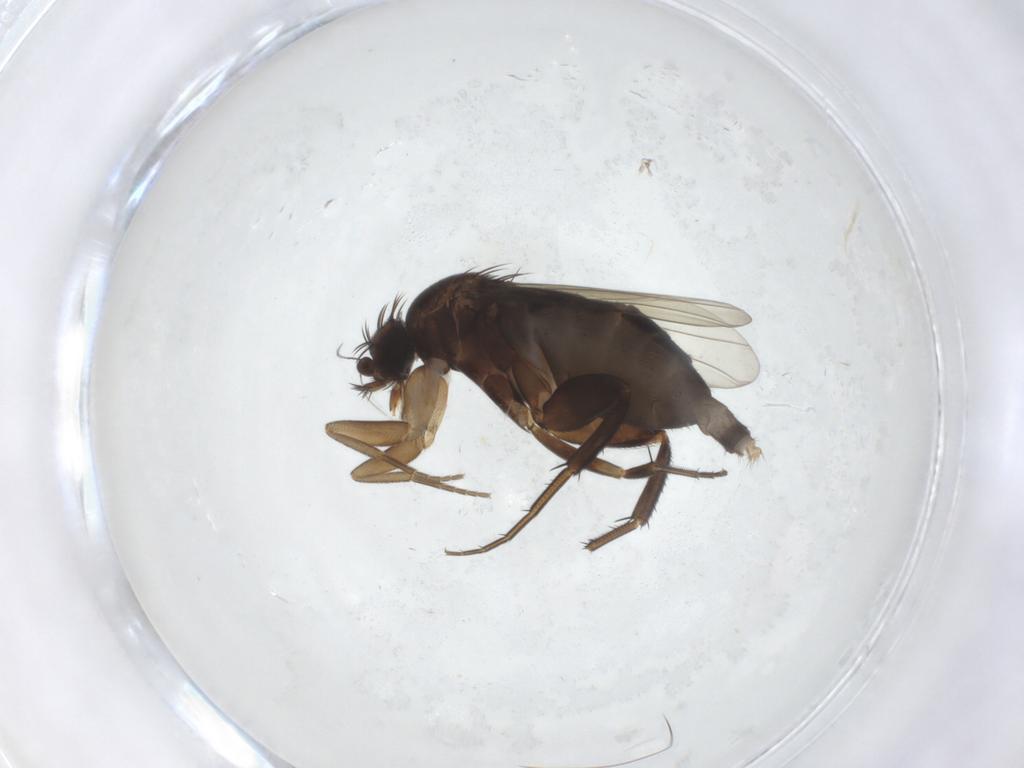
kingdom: Animalia
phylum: Arthropoda
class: Insecta
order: Diptera
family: Phoridae
